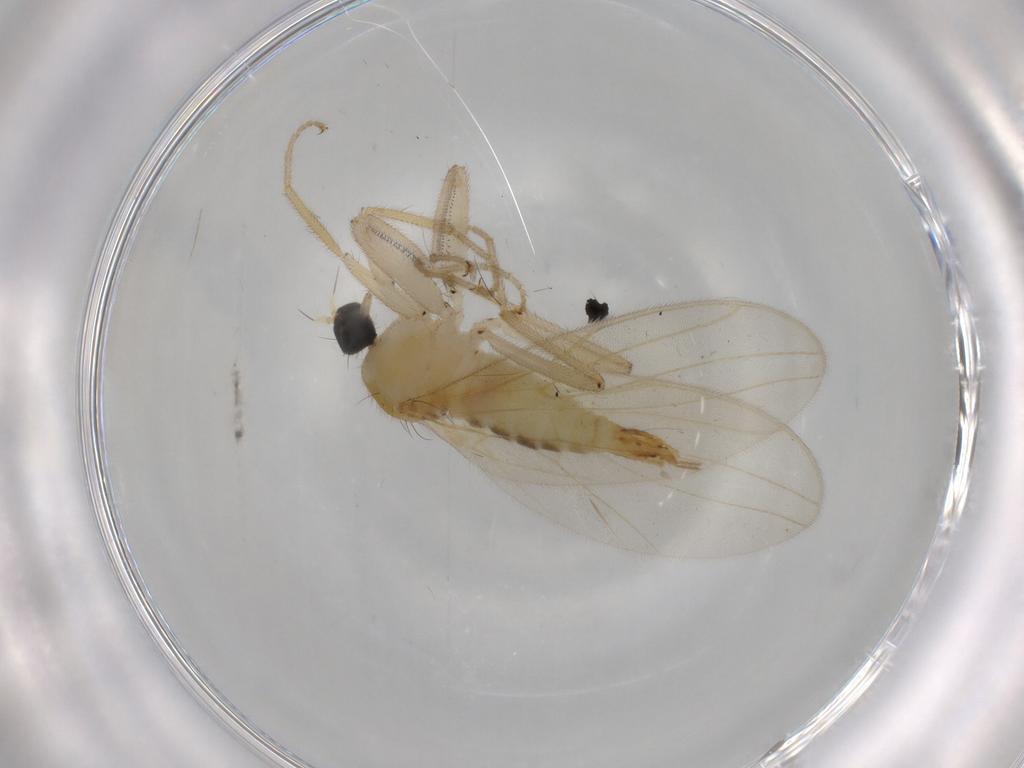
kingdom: Animalia
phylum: Arthropoda
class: Insecta
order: Diptera
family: Hybotidae
